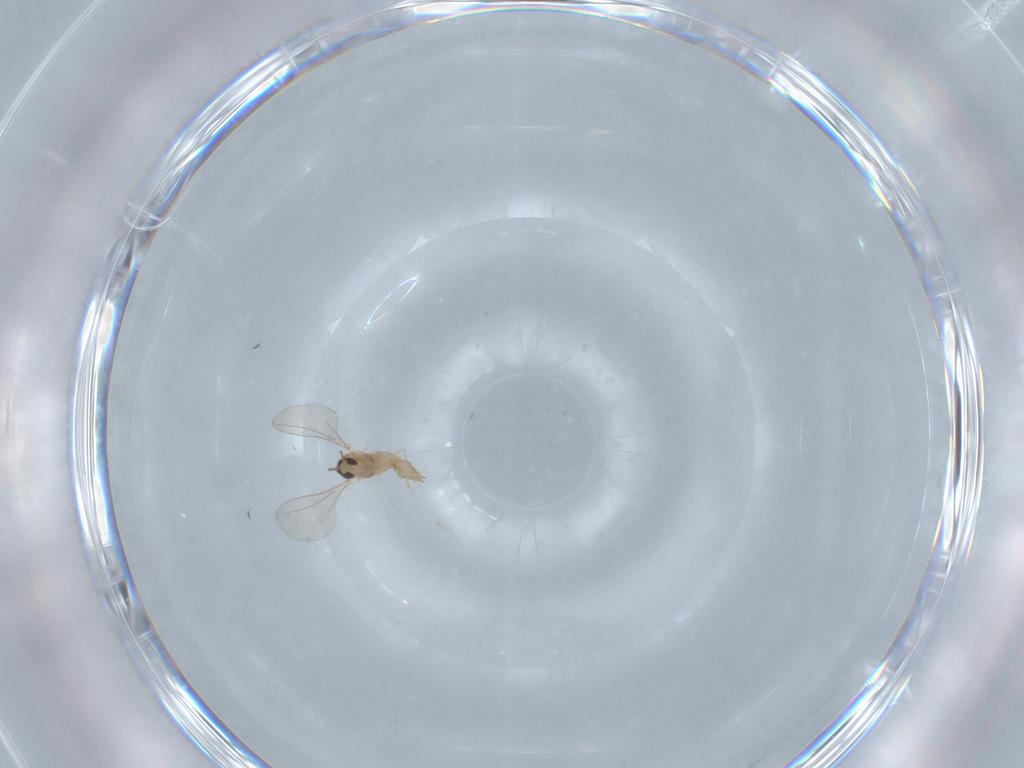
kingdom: Animalia
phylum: Arthropoda
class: Insecta
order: Diptera
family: Cecidomyiidae
